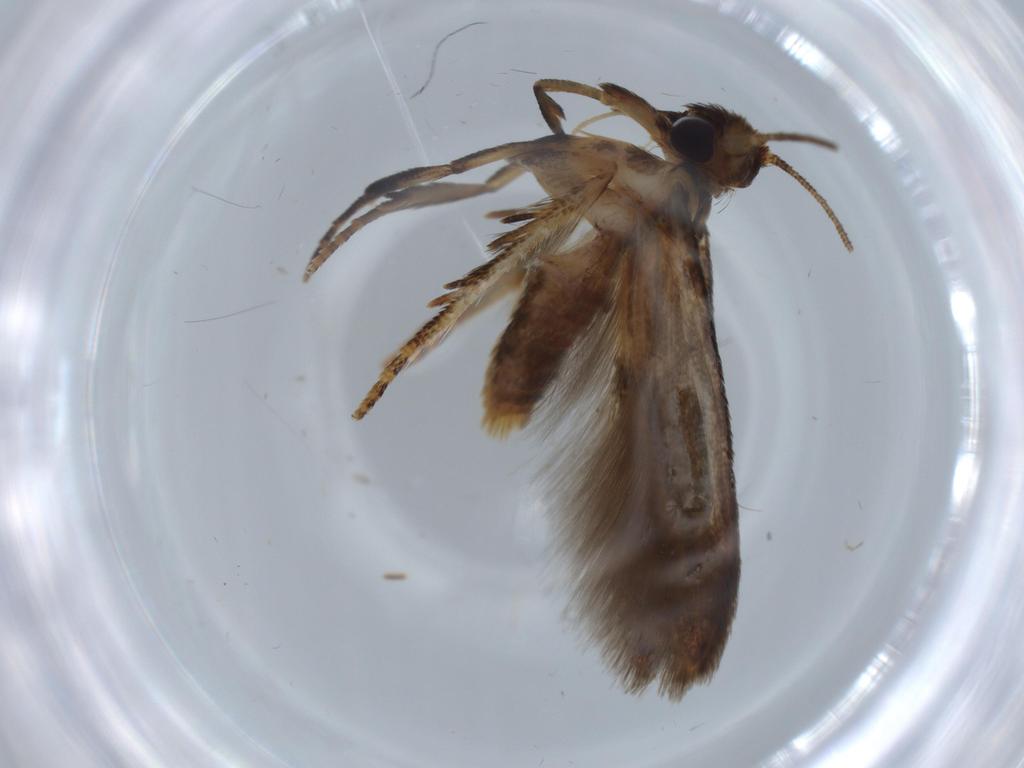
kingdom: Animalia
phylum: Arthropoda
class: Insecta
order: Lepidoptera
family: Blastobasidae
